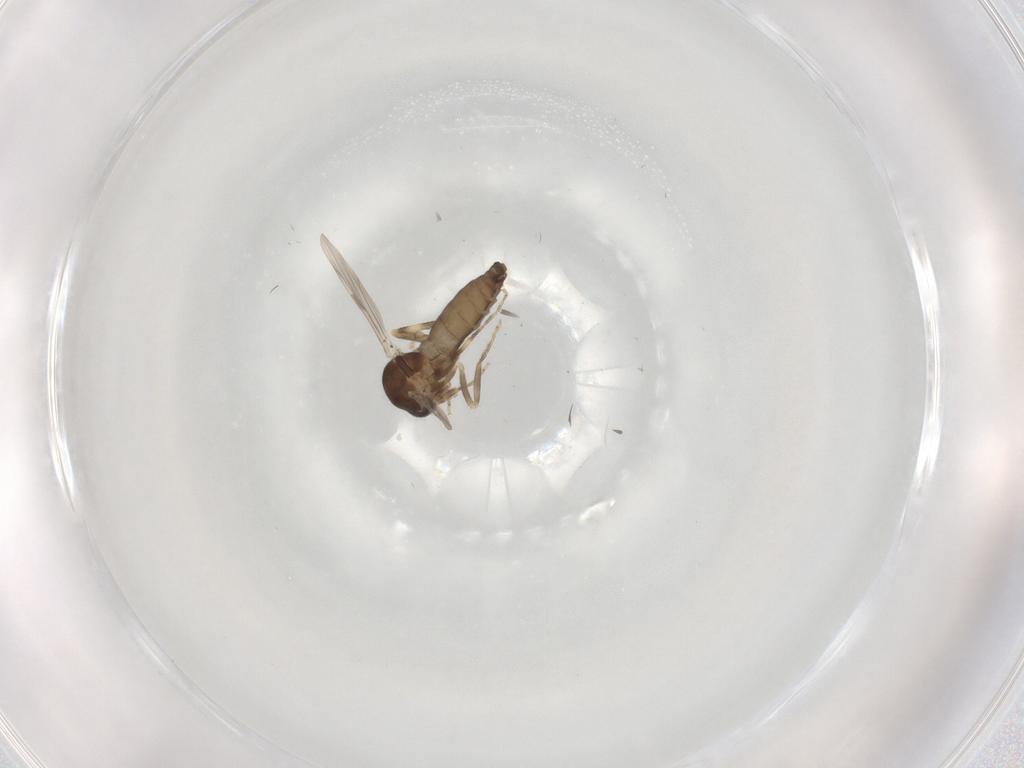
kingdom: Animalia
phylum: Arthropoda
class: Insecta
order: Diptera
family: Ceratopogonidae
